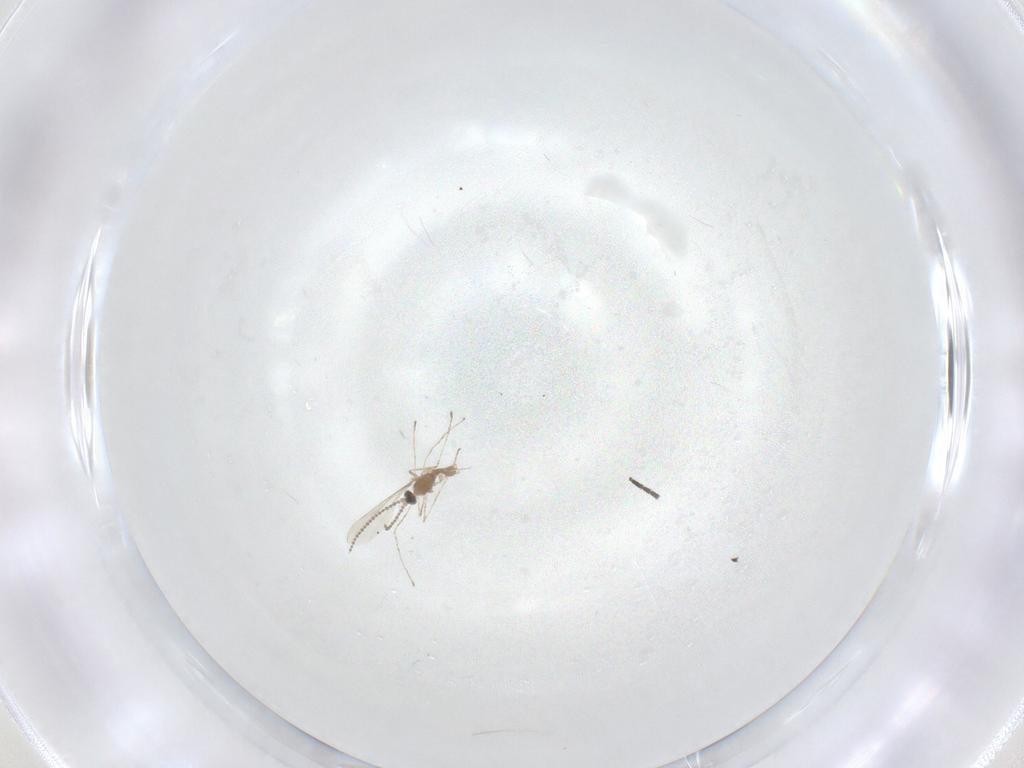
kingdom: Animalia
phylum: Arthropoda
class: Insecta
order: Diptera
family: Cecidomyiidae
